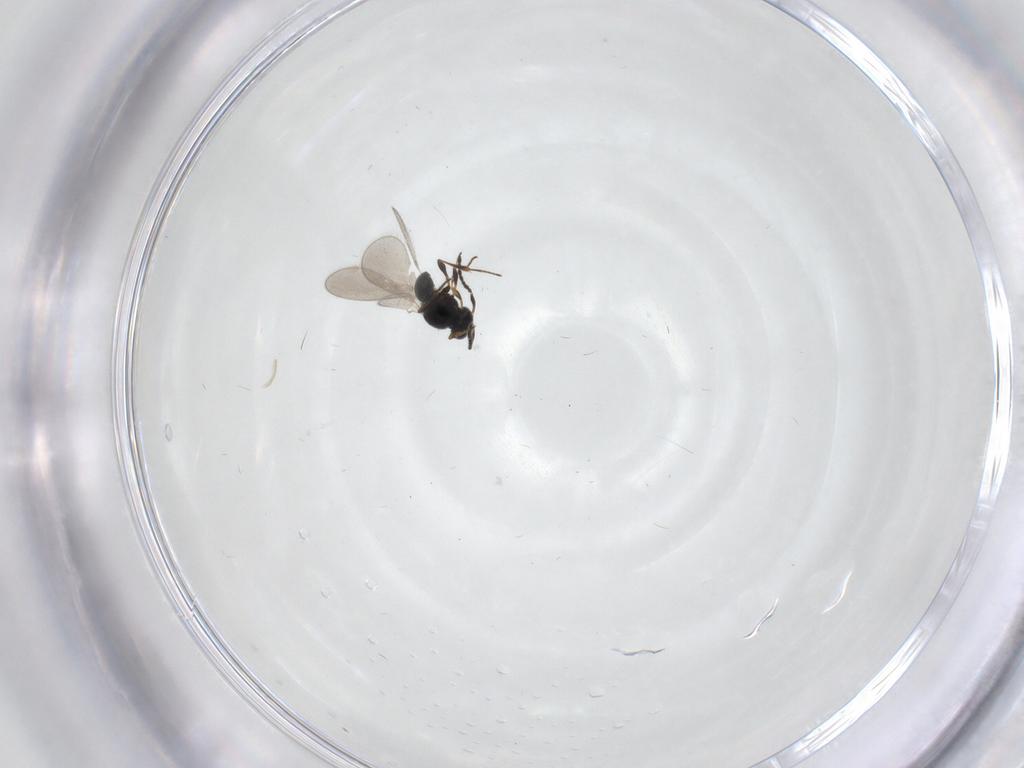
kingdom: Animalia
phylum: Arthropoda
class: Insecta
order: Hymenoptera
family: Platygastridae
